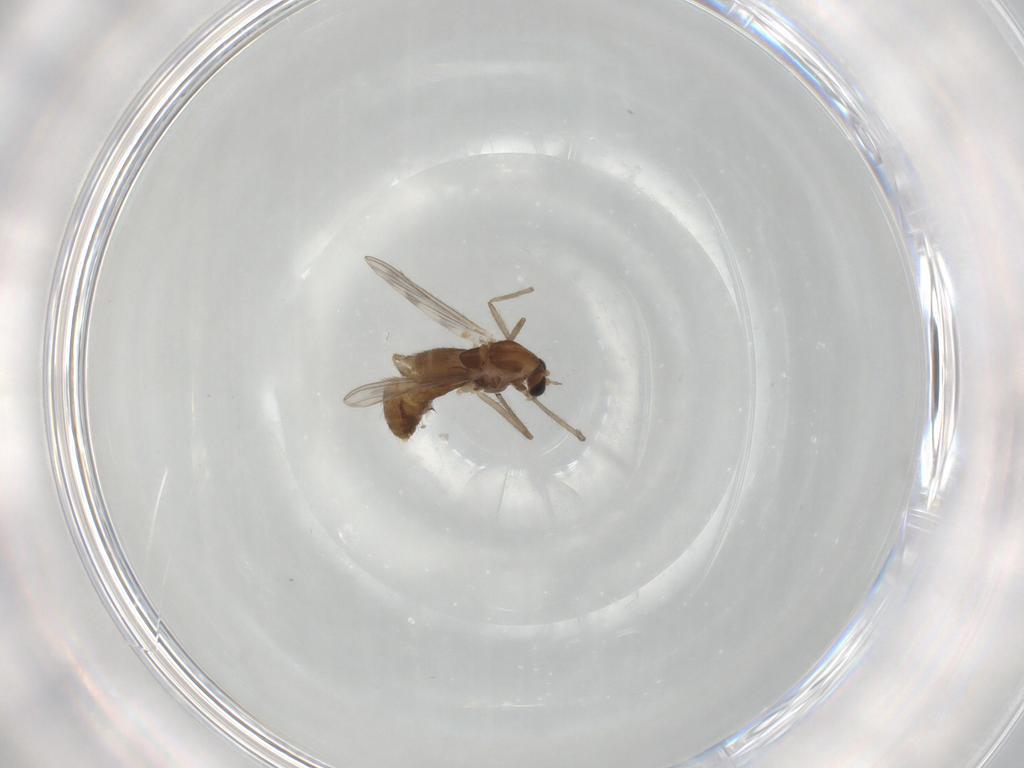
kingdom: Animalia
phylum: Arthropoda
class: Insecta
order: Diptera
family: Chironomidae
